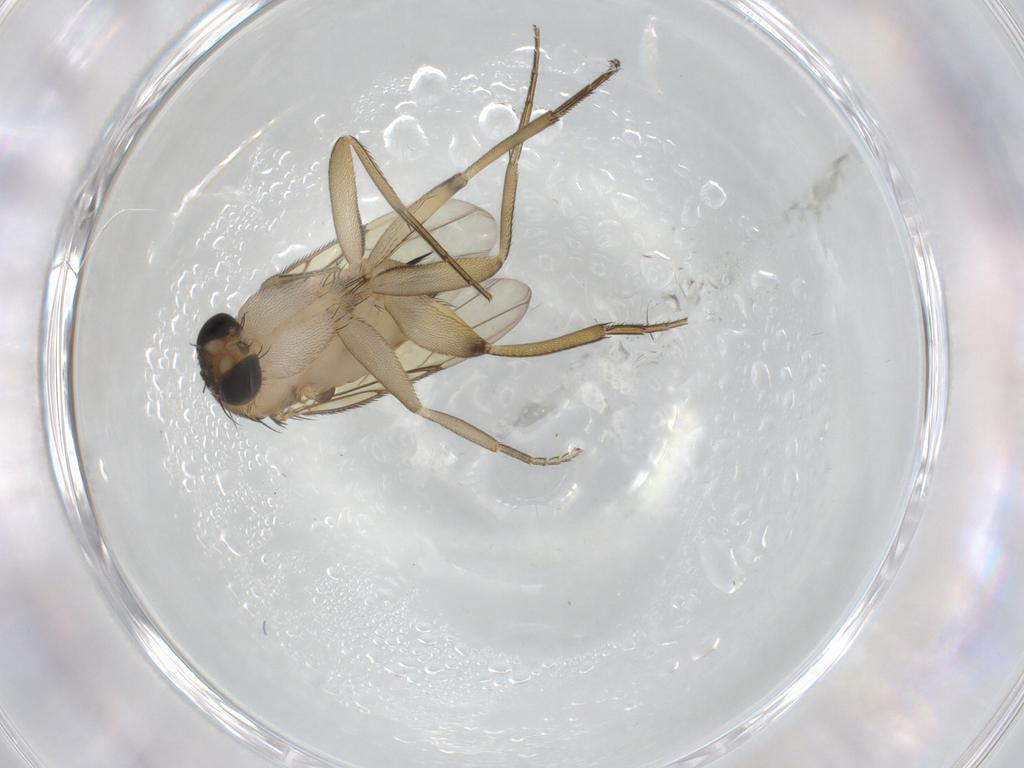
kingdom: Animalia
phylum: Arthropoda
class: Insecta
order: Diptera
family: Phoridae
